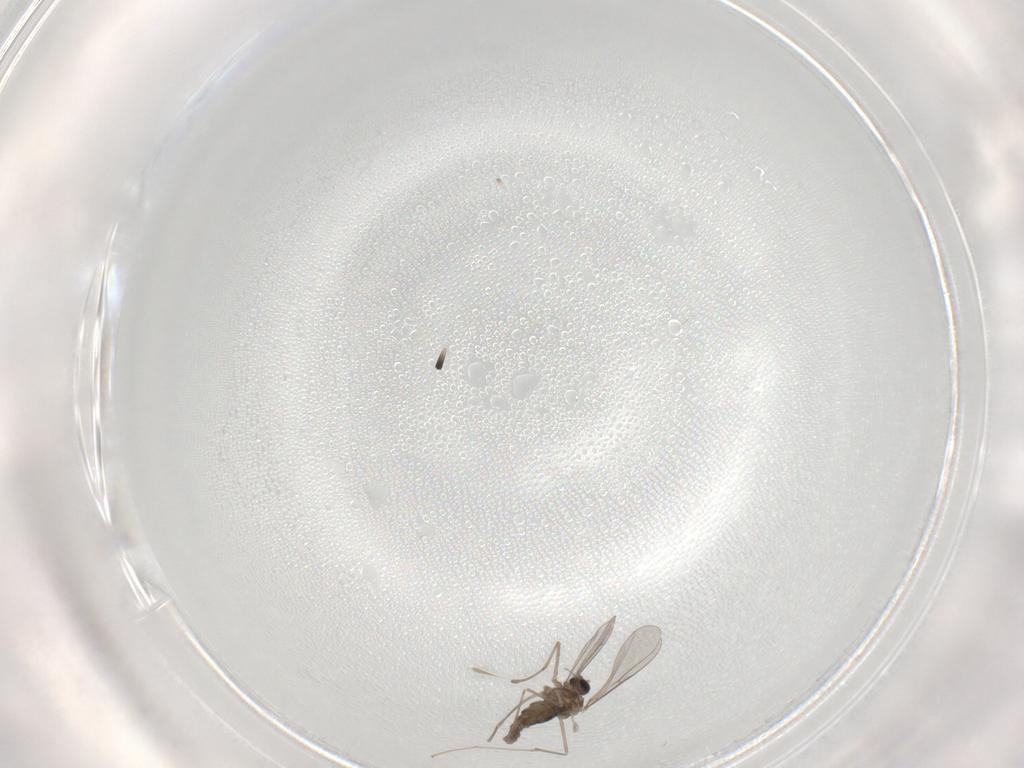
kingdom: Animalia
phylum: Arthropoda
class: Insecta
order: Diptera
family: Cecidomyiidae
